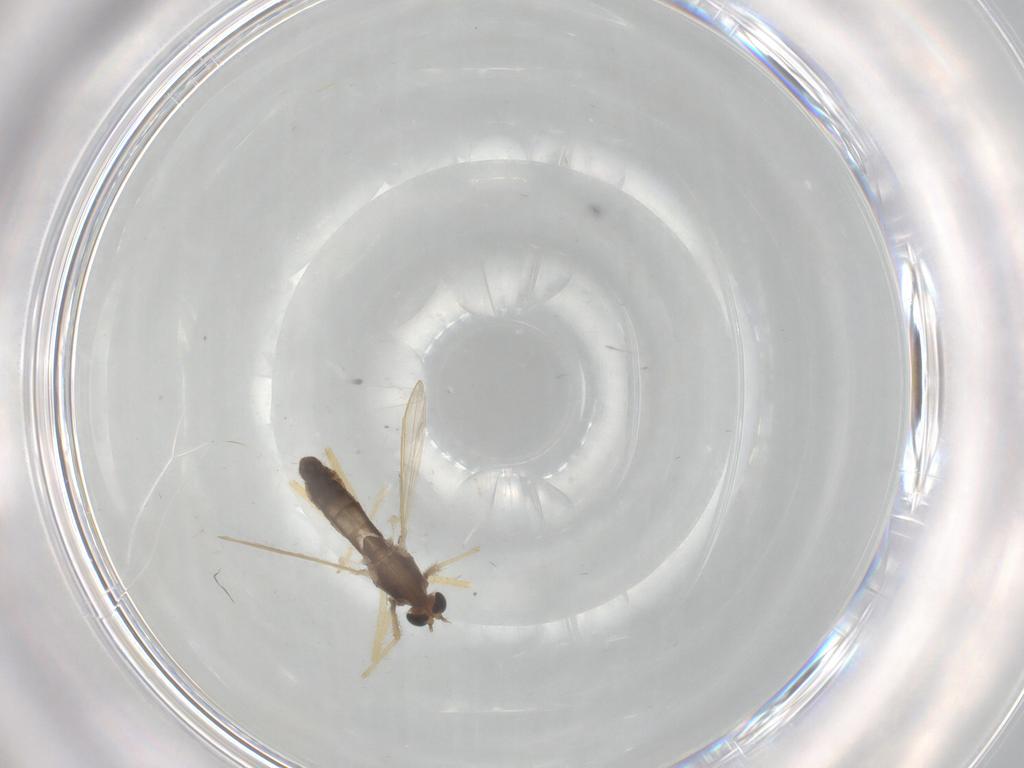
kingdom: Animalia
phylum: Arthropoda
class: Insecta
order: Diptera
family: Chironomidae
